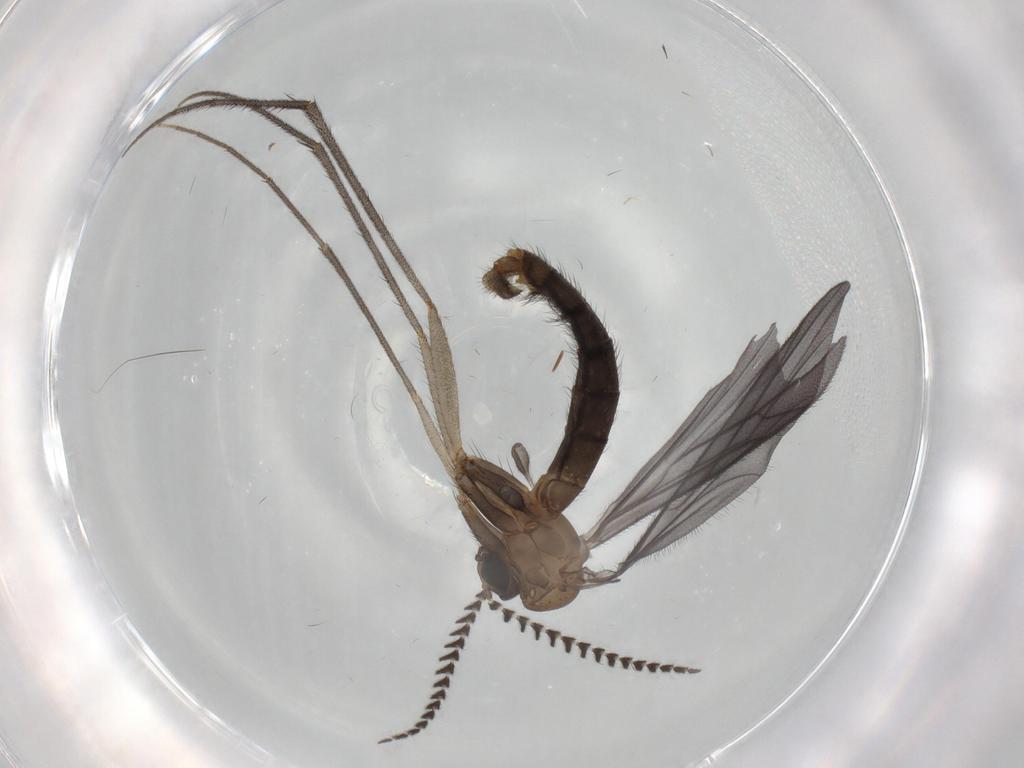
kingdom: Animalia
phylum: Arthropoda
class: Insecta
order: Diptera
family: Ditomyiidae
